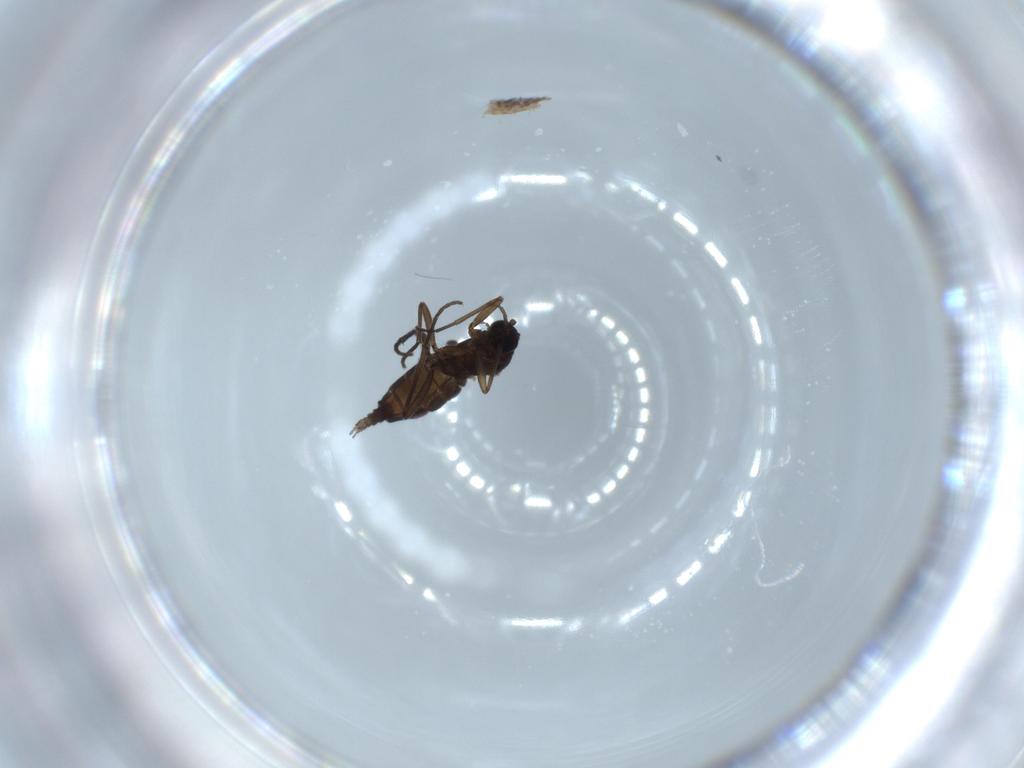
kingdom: Animalia
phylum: Arthropoda
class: Insecta
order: Diptera
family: Sciaridae
